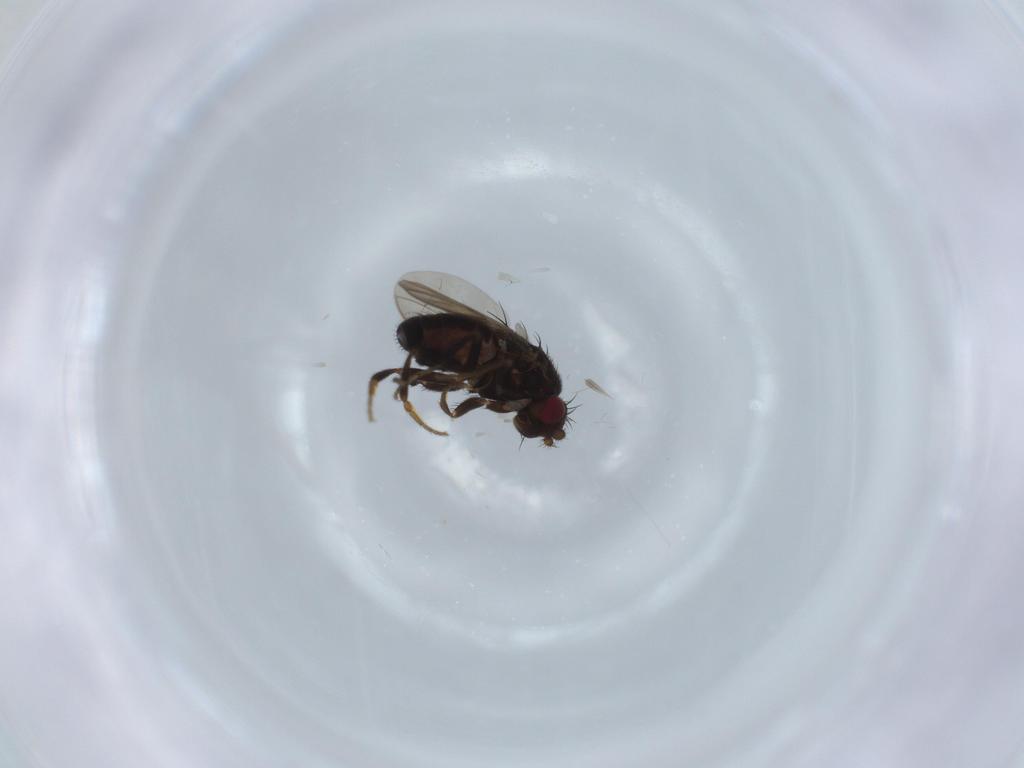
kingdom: Animalia
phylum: Arthropoda
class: Insecta
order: Diptera
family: Sphaeroceridae
